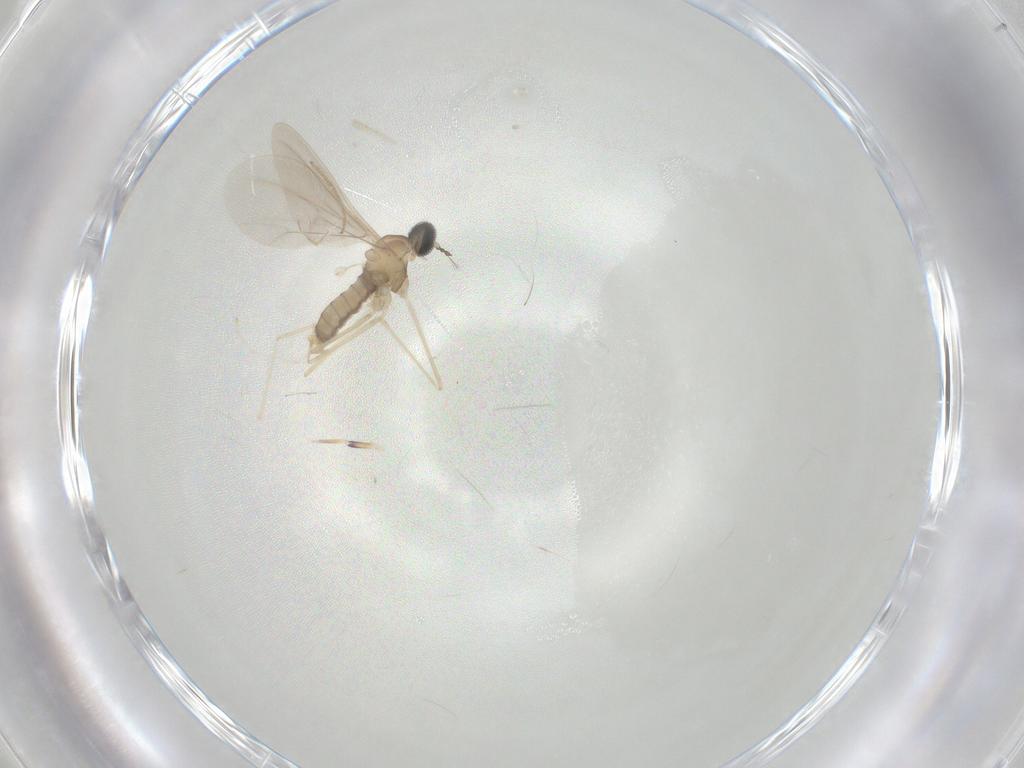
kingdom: Animalia
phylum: Arthropoda
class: Insecta
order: Diptera
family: Cecidomyiidae
